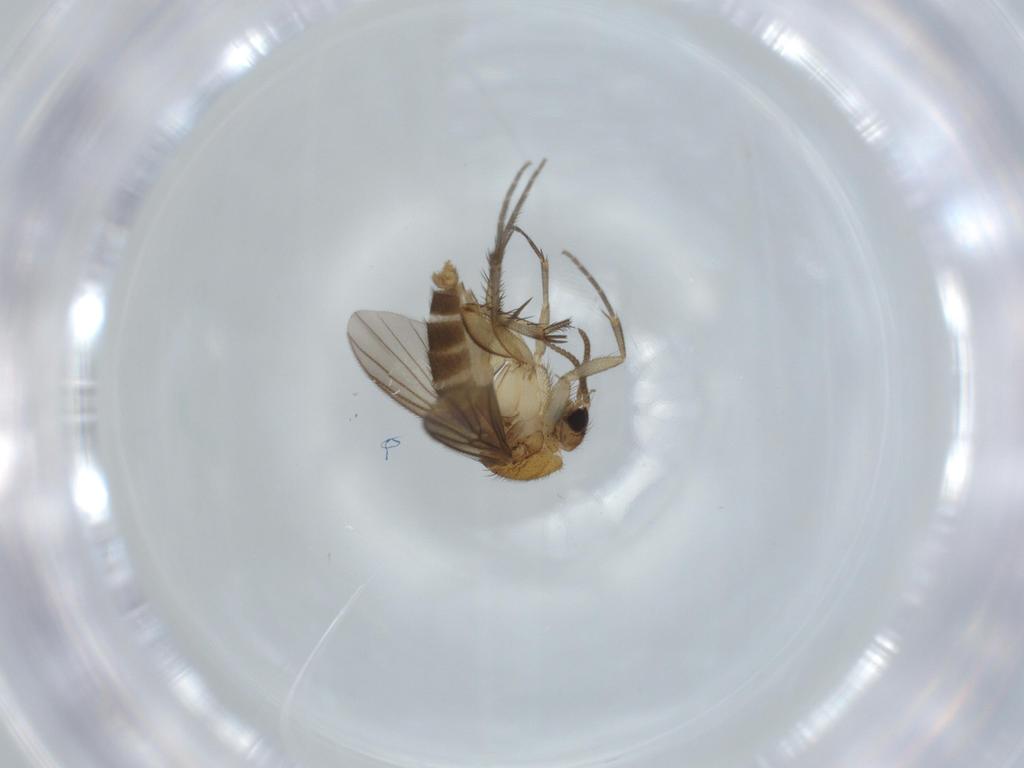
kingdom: Animalia
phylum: Arthropoda
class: Insecta
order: Diptera
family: Mycetophilidae
